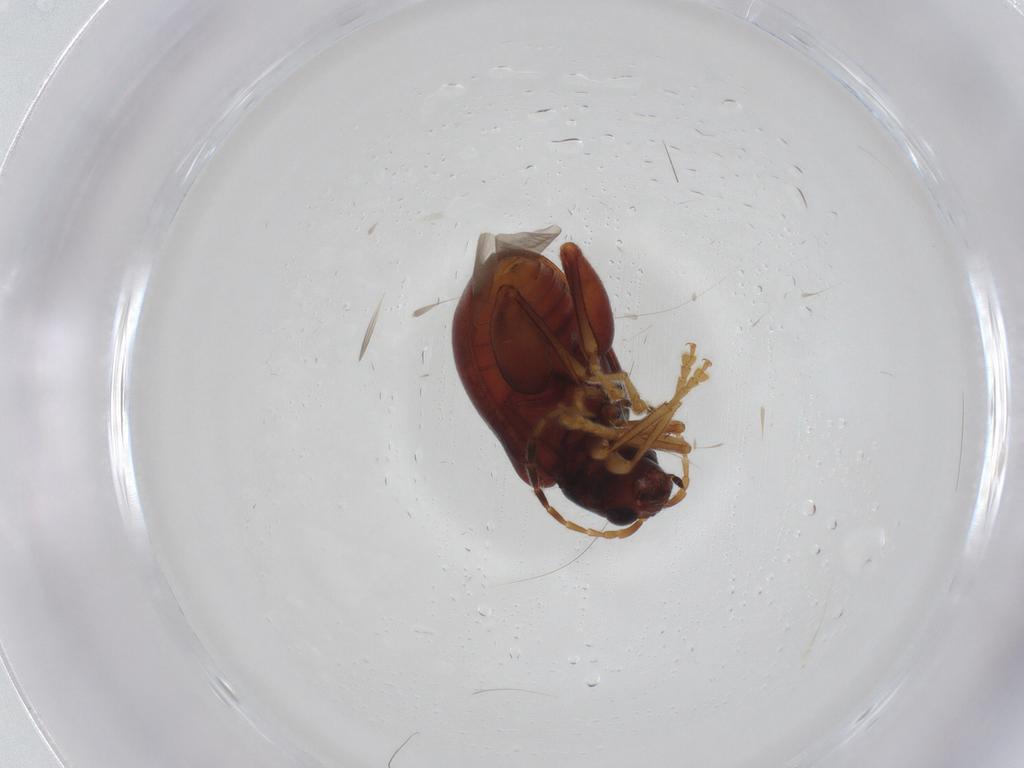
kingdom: Animalia
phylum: Arthropoda
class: Insecta
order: Coleoptera
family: Chrysomelidae
